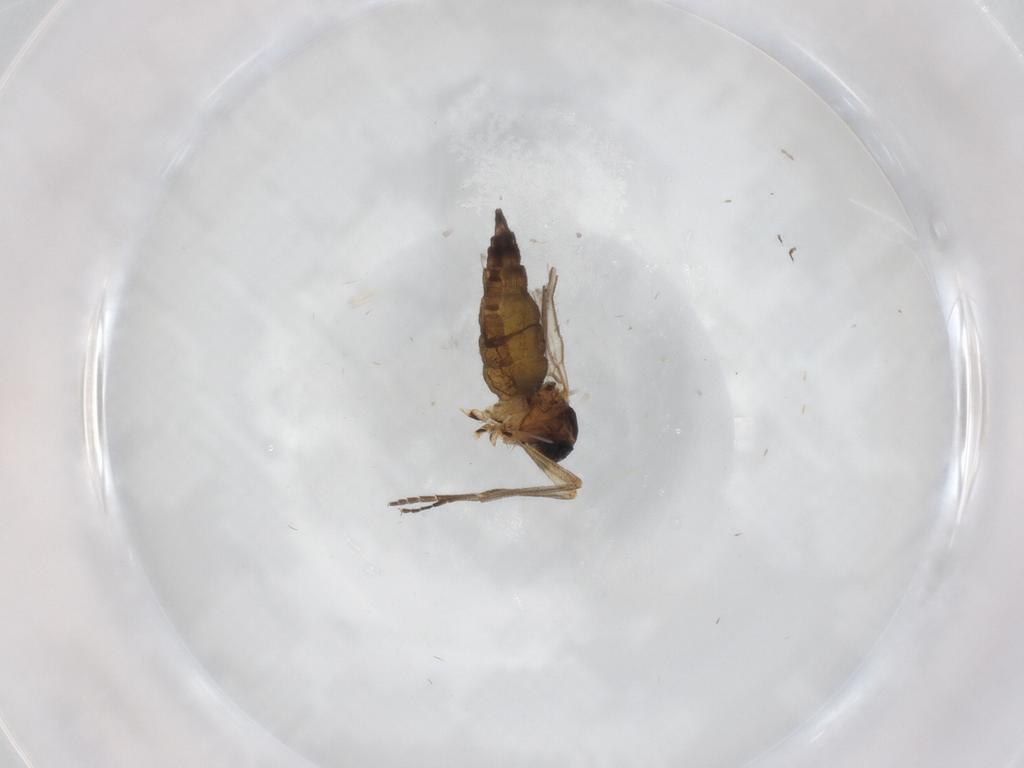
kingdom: Animalia
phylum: Arthropoda
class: Insecta
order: Diptera
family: Sciaridae
